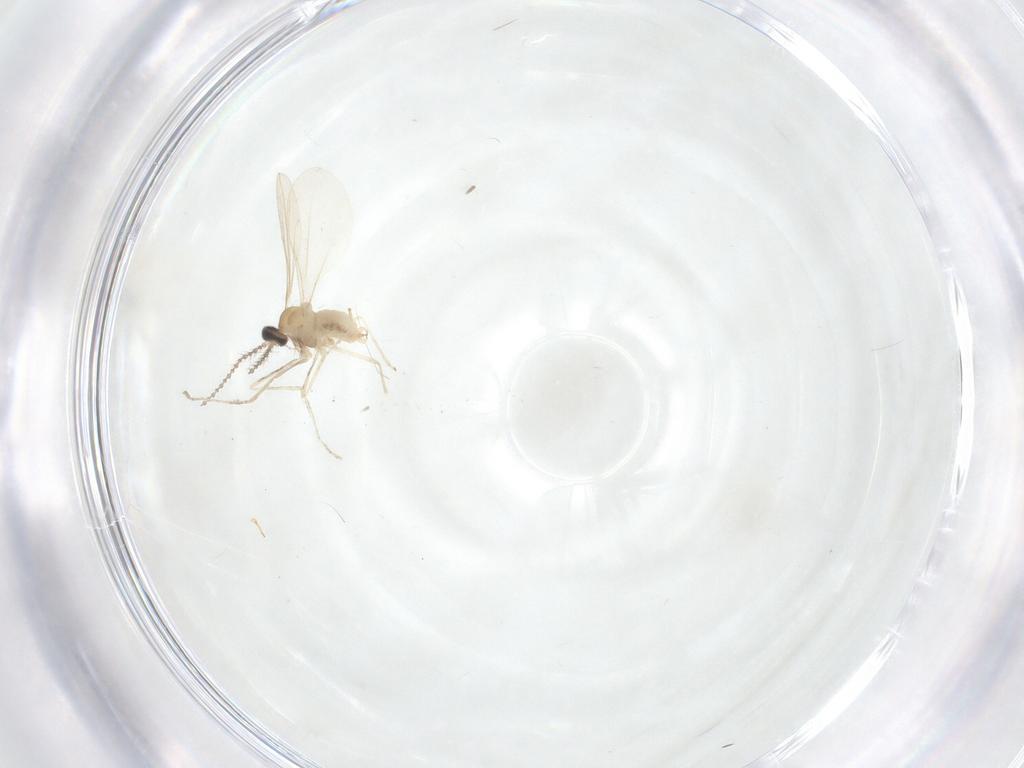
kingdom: Animalia
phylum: Arthropoda
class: Insecta
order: Diptera
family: Cecidomyiidae
